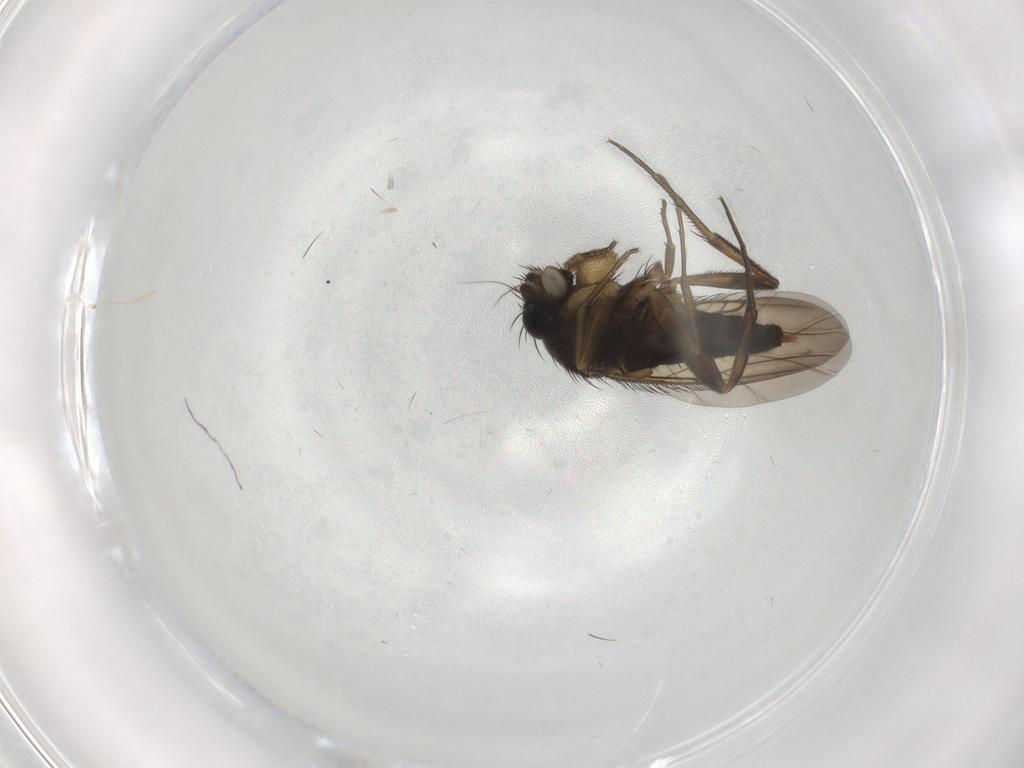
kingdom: Animalia
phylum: Arthropoda
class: Insecta
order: Diptera
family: Phoridae
